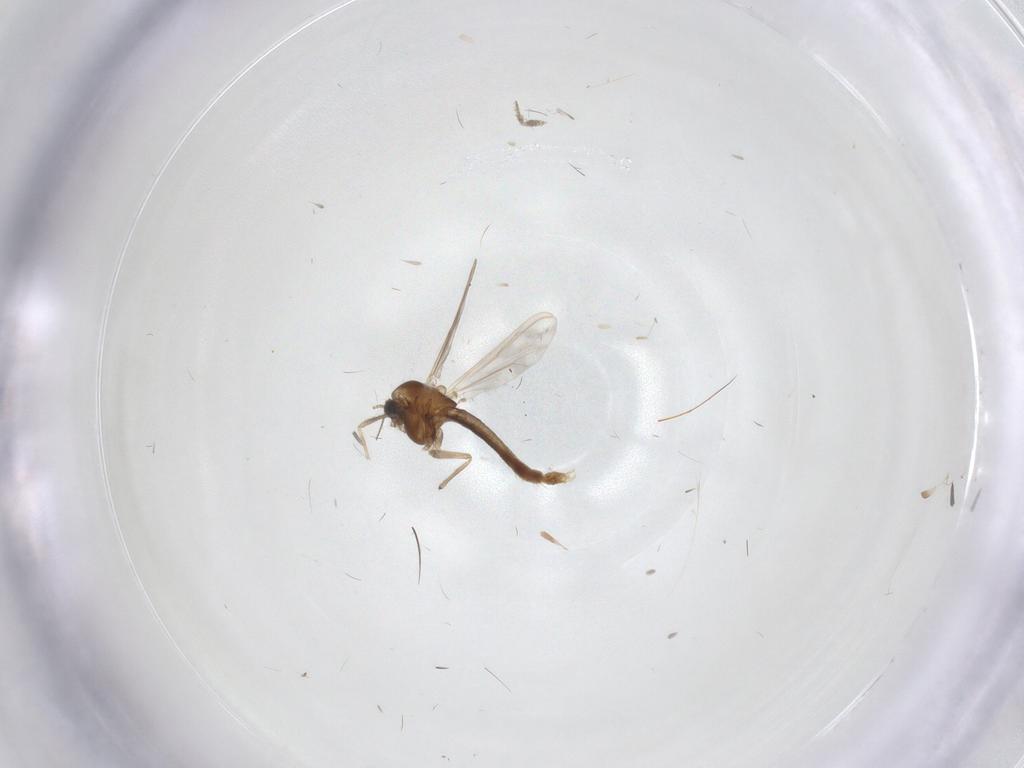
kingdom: Animalia
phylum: Arthropoda
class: Insecta
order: Diptera
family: Chironomidae
